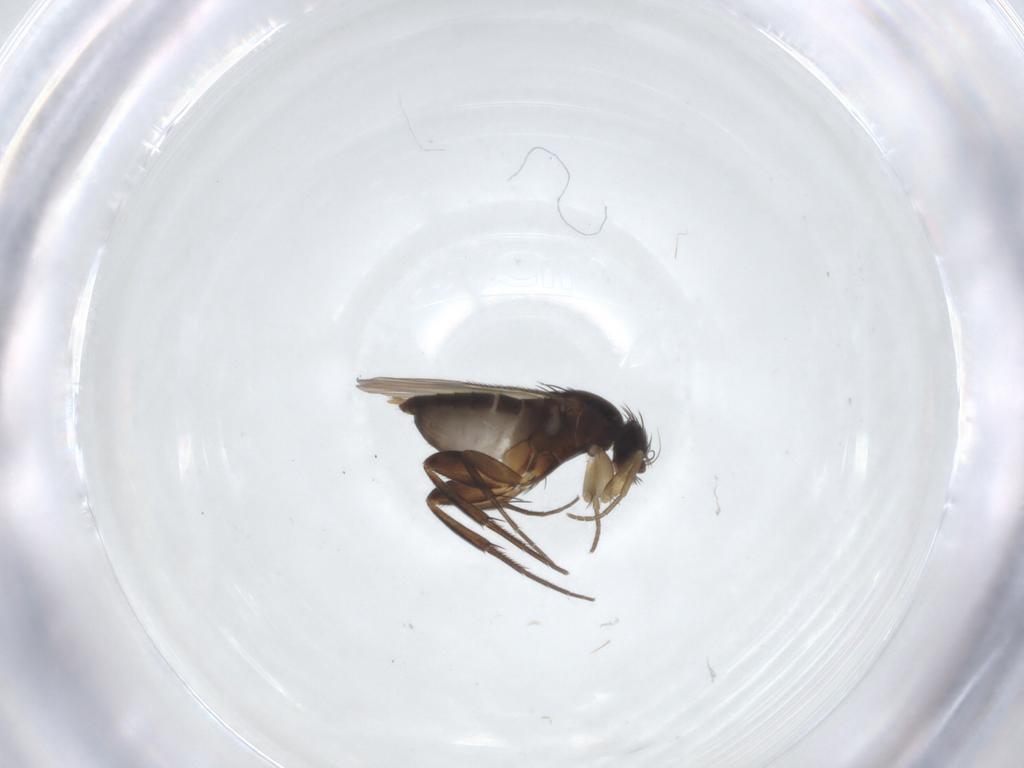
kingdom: Animalia
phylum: Arthropoda
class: Insecta
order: Diptera
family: Phoridae
